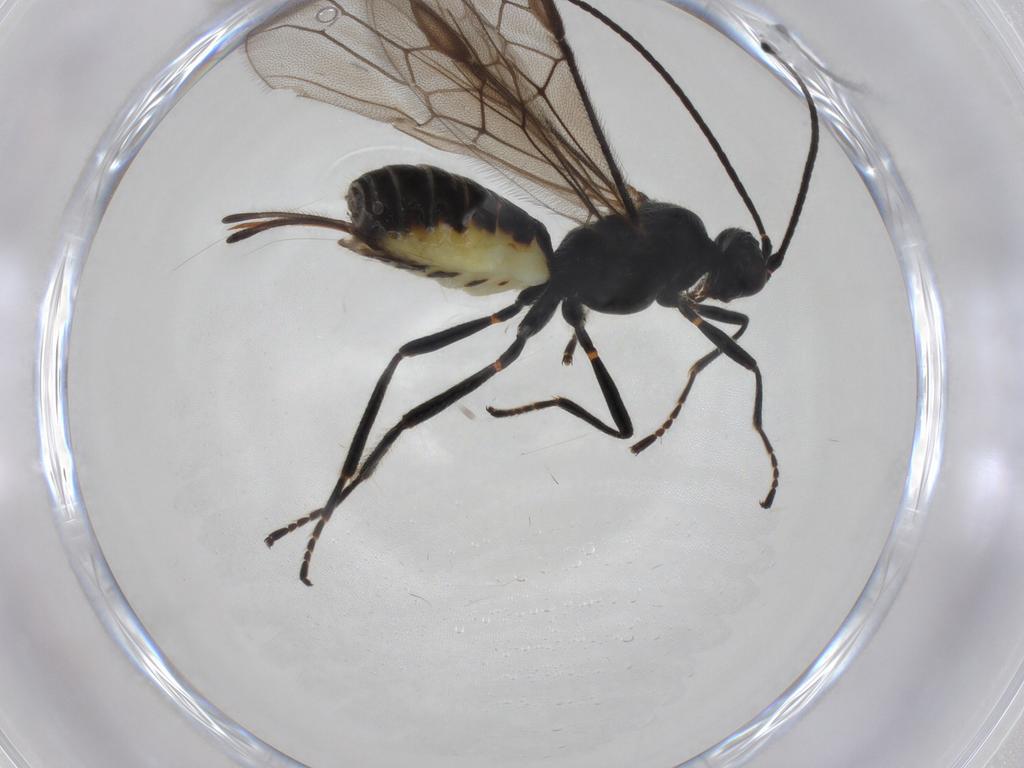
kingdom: Animalia
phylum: Arthropoda
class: Insecta
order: Hymenoptera
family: Braconidae
